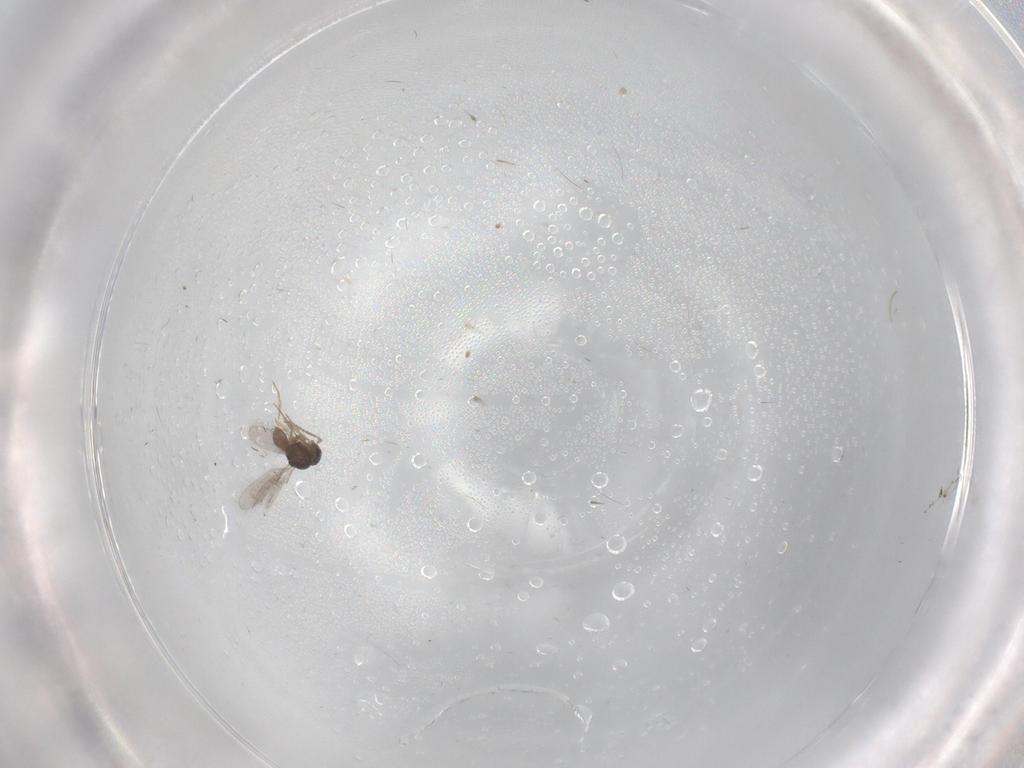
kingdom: Animalia
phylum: Arthropoda
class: Insecta
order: Hymenoptera
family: Scelionidae
